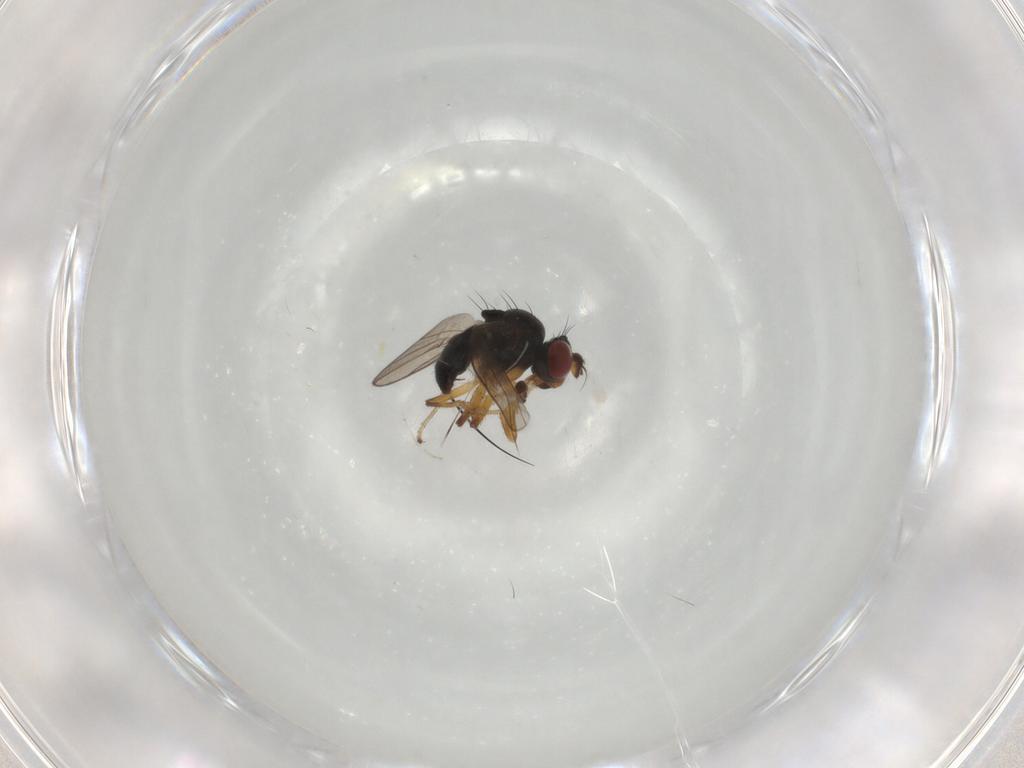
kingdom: Animalia
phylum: Arthropoda
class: Insecta
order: Diptera
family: Ephydridae
